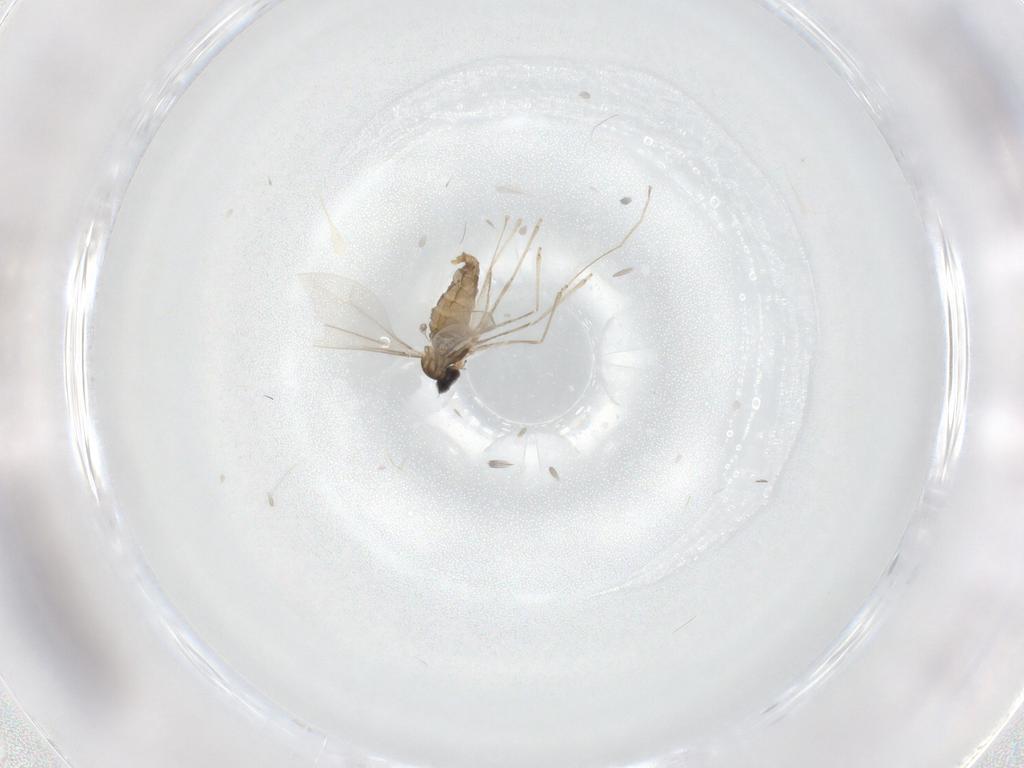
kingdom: Animalia
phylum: Arthropoda
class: Insecta
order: Diptera
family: Cecidomyiidae
